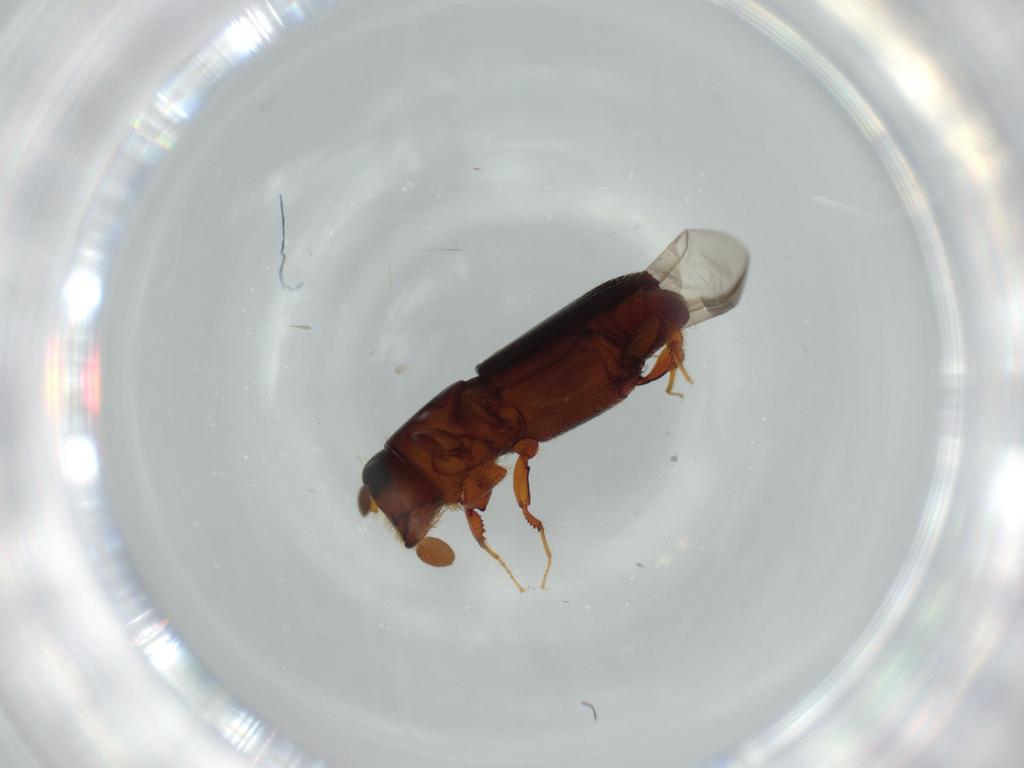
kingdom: Animalia
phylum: Arthropoda
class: Insecta
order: Coleoptera
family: Curculionidae
